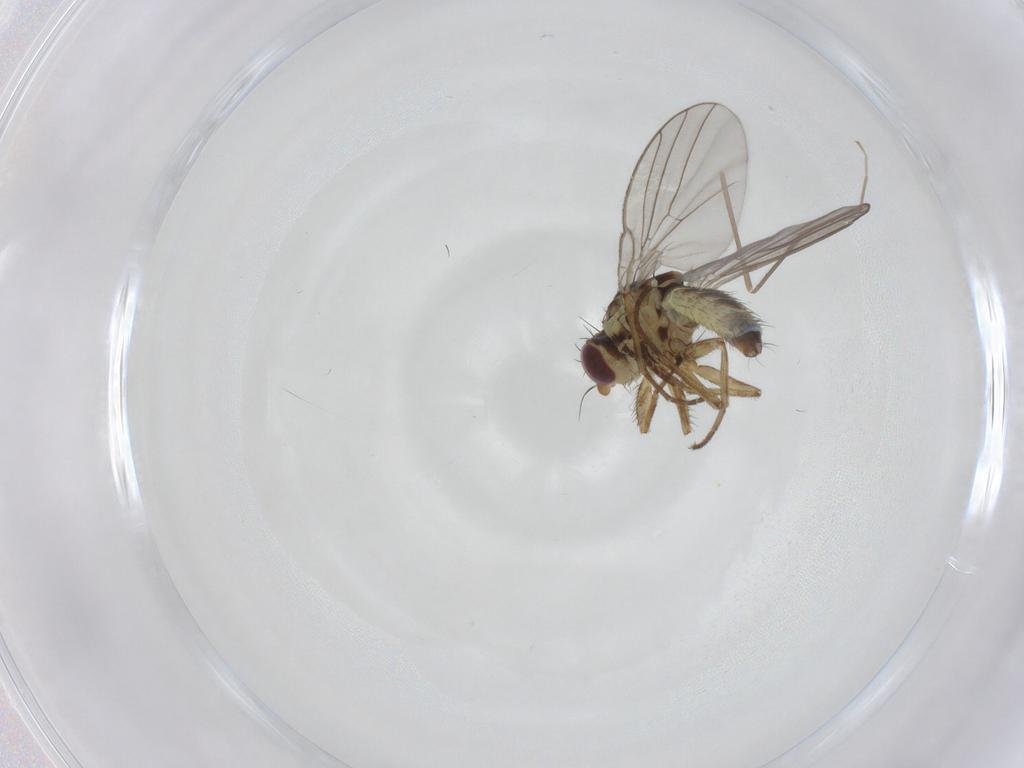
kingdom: Animalia
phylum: Arthropoda
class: Insecta
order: Diptera
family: Agromyzidae
